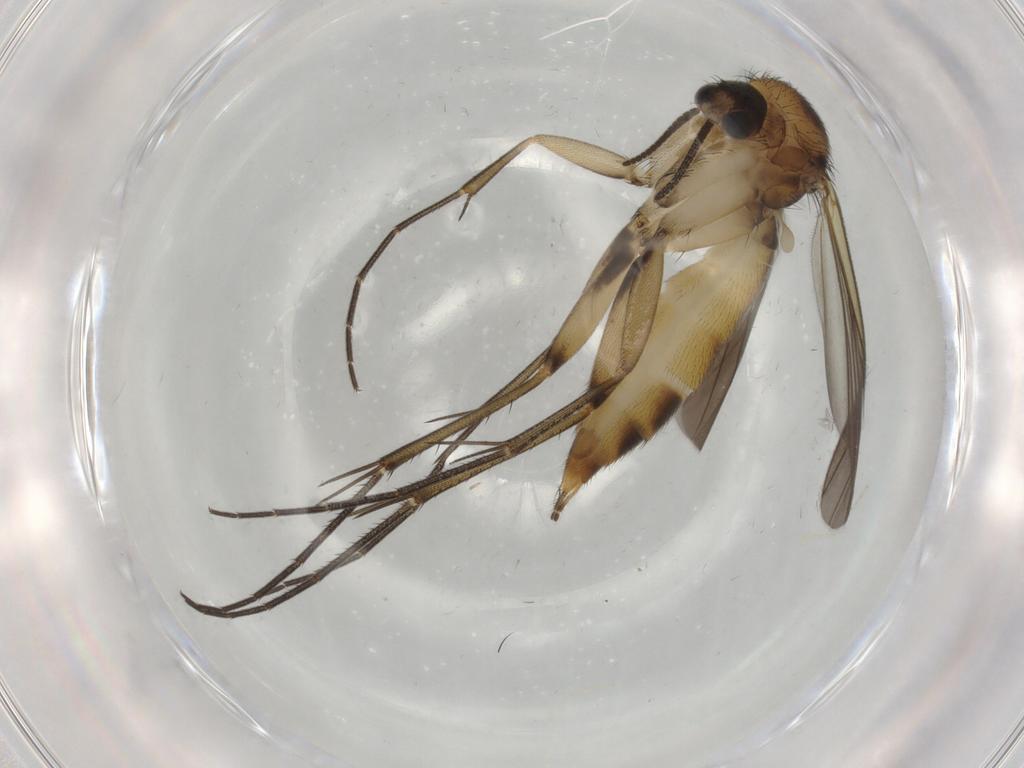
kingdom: Animalia
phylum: Arthropoda
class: Insecta
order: Diptera
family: Mycetophilidae
